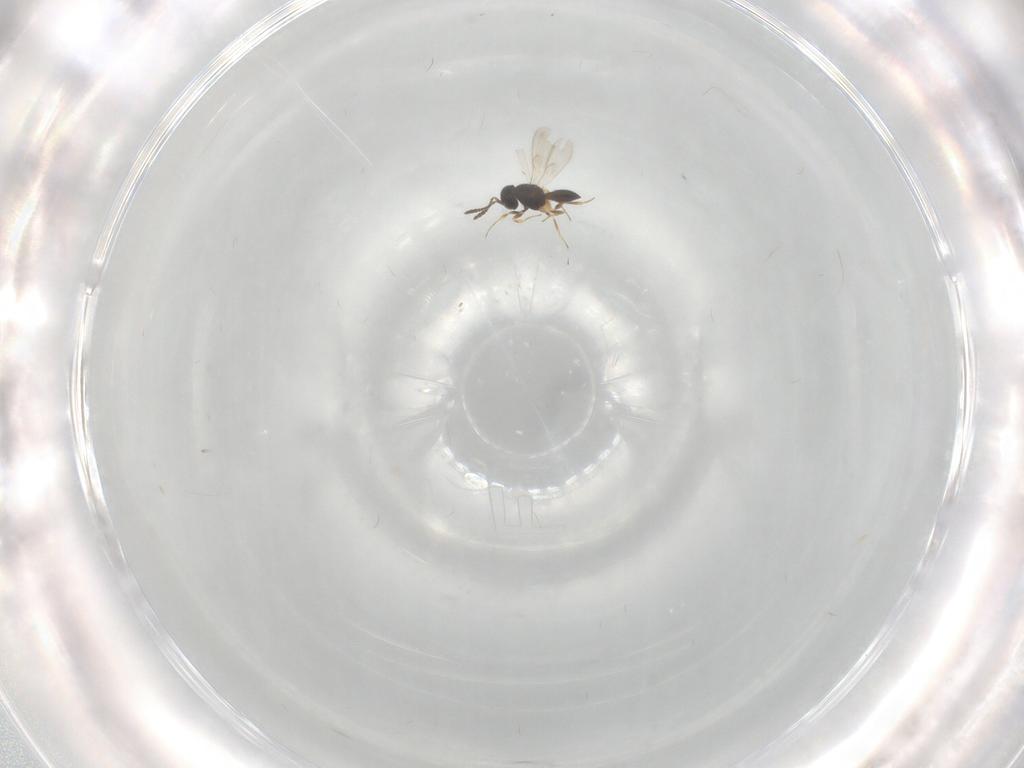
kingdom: Animalia
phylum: Arthropoda
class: Insecta
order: Hymenoptera
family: Scelionidae
